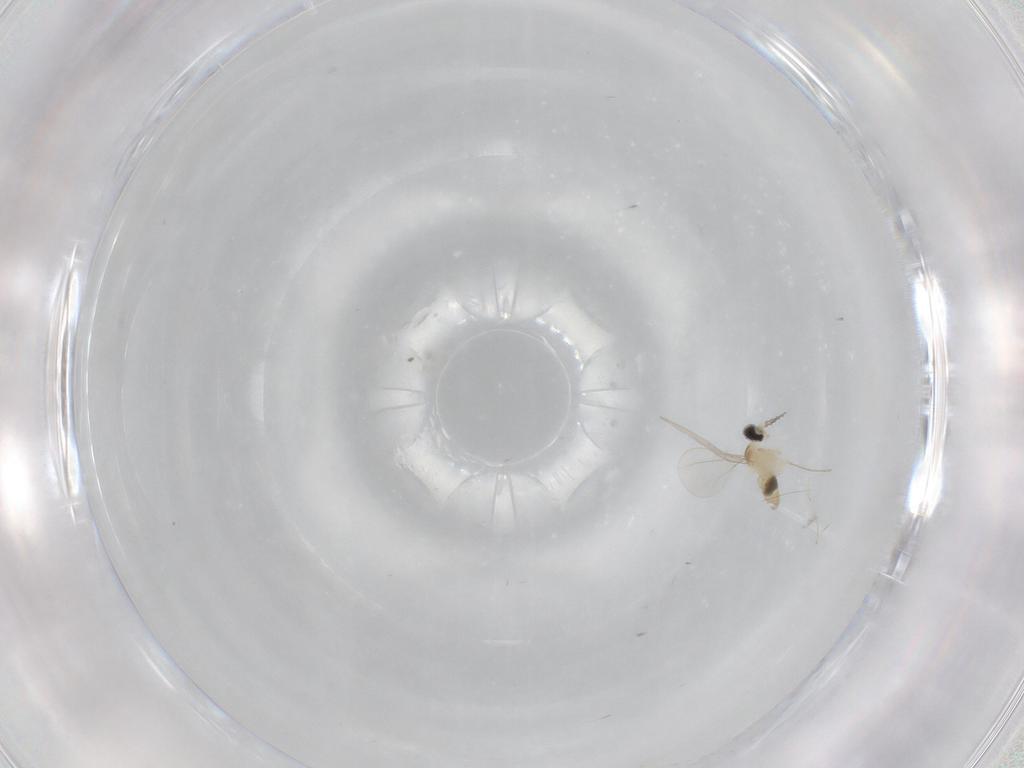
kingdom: Animalia
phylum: Arthropoda
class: Insecta
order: Diptera
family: Cecidomyiidae
